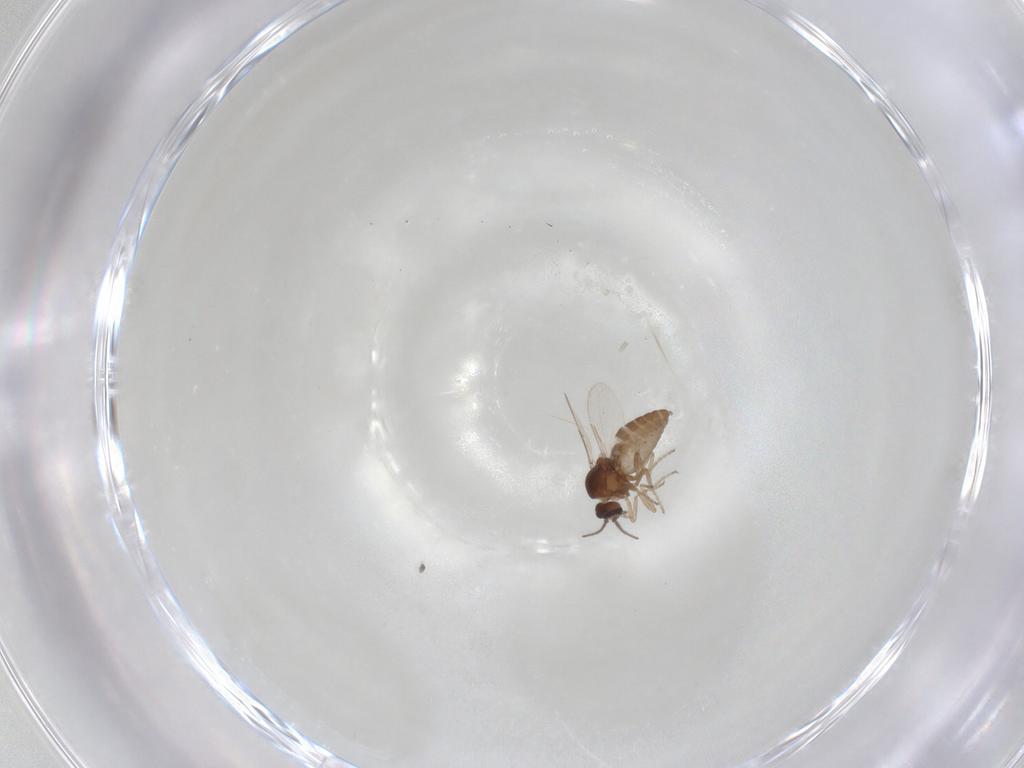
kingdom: Animalia
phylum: Arthropoda
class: Insecta
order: Diptera
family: Ceratopogonidae
